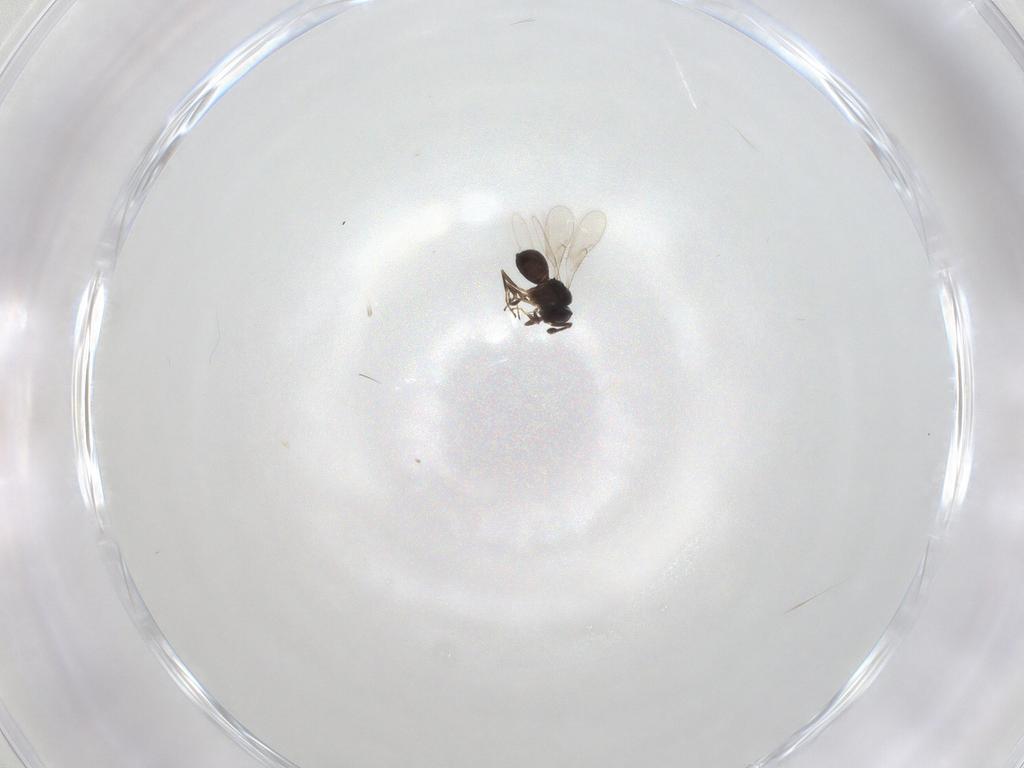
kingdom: Animalia
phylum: Arthropoda
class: Insecta
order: Hymenoptera
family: Scelionidae
